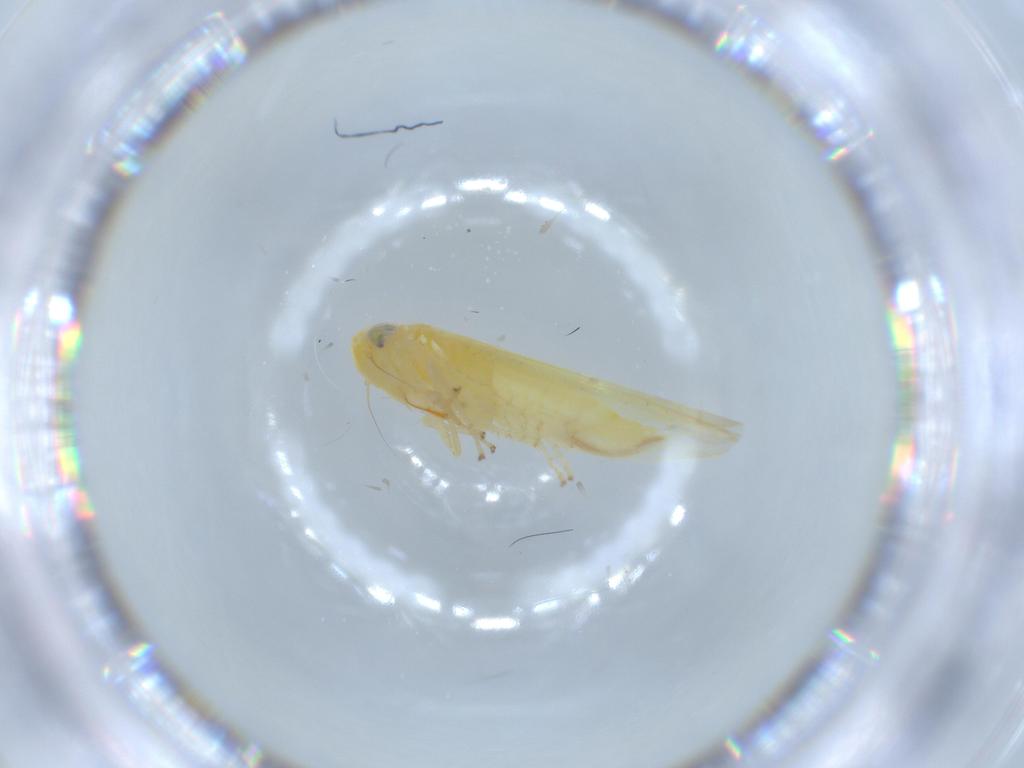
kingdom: Animalia
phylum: Arthropoda
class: Insecta
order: Hemiptera
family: Cicadellidae
